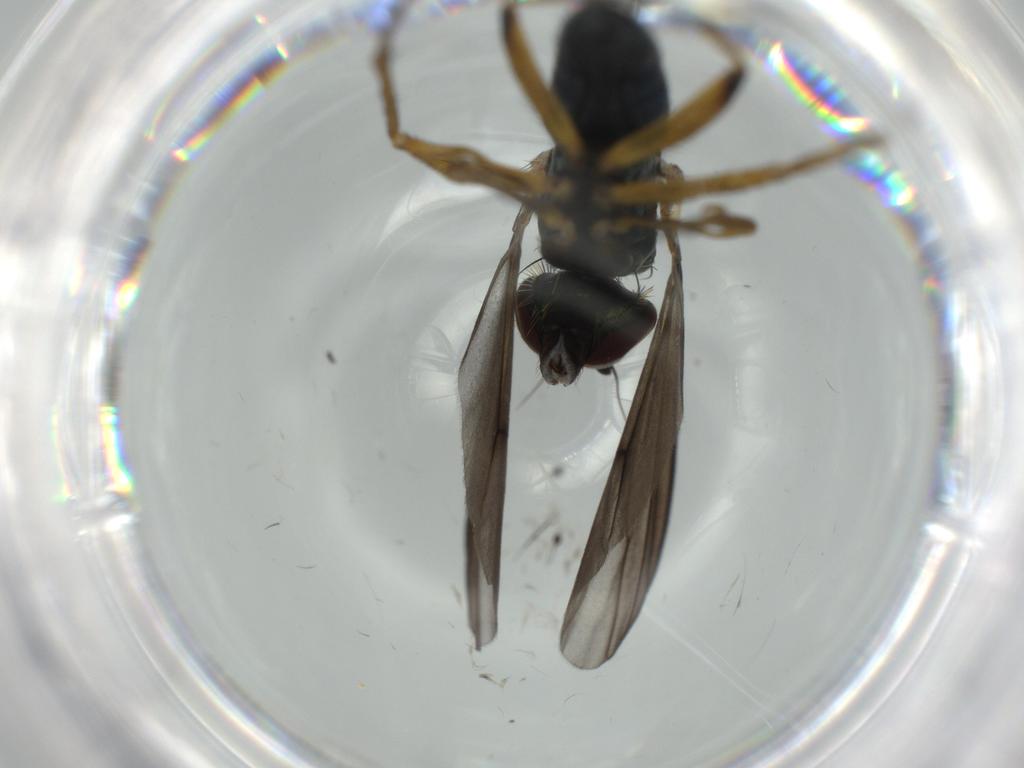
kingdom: Animalia
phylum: Arthropoda
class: Insecta
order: Diptera
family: Dolichopodidae
